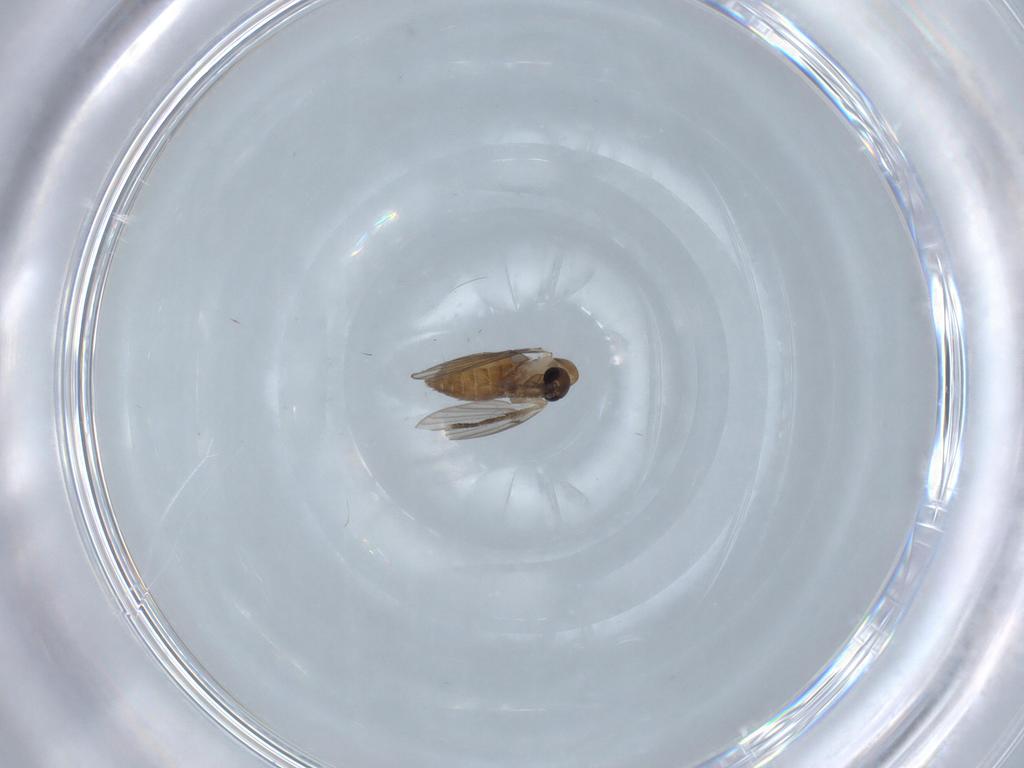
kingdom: Animalia
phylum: Arthropoda
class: Insecta
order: Diptera
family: Psychodidae
